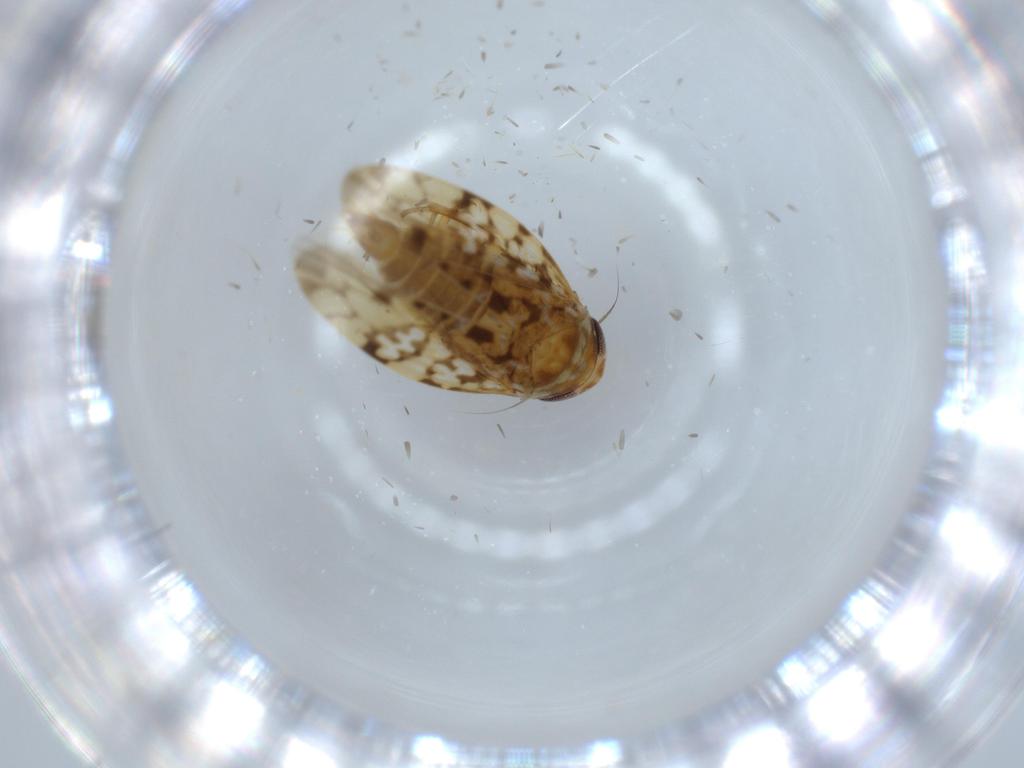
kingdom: Animalia
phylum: Arthropoda
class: Insecta
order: Hemiptera
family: Cicadellidae
